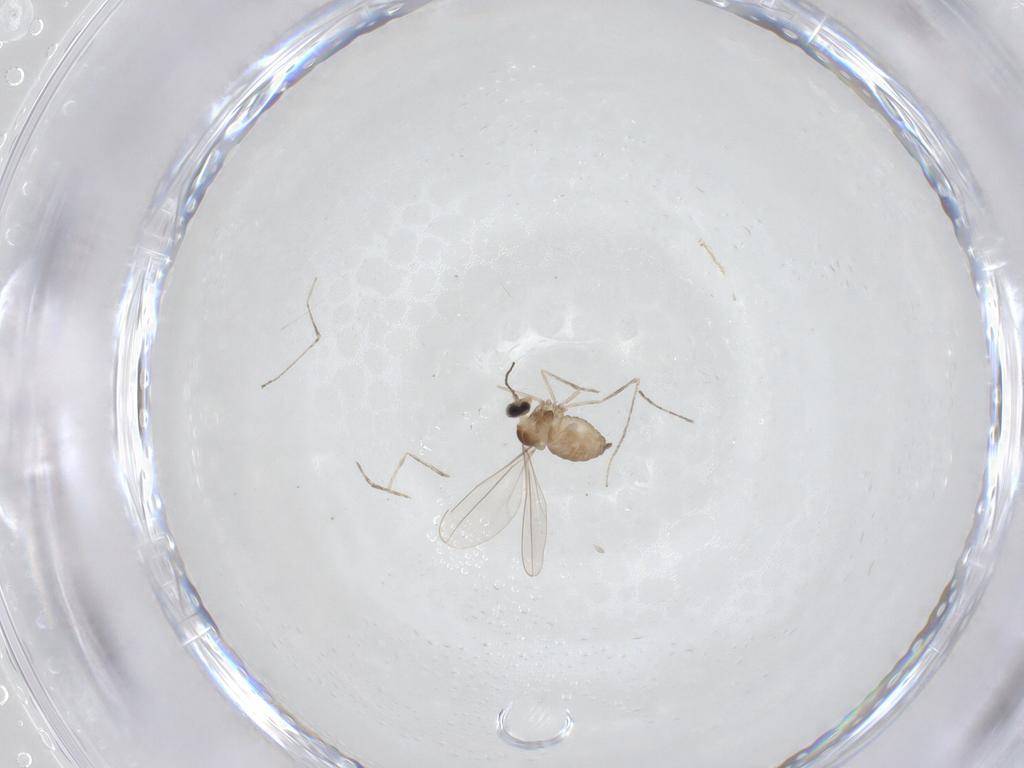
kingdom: Animalia
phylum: Arthropoda
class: Insecta
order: Diptera
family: Cecidomyiidae
